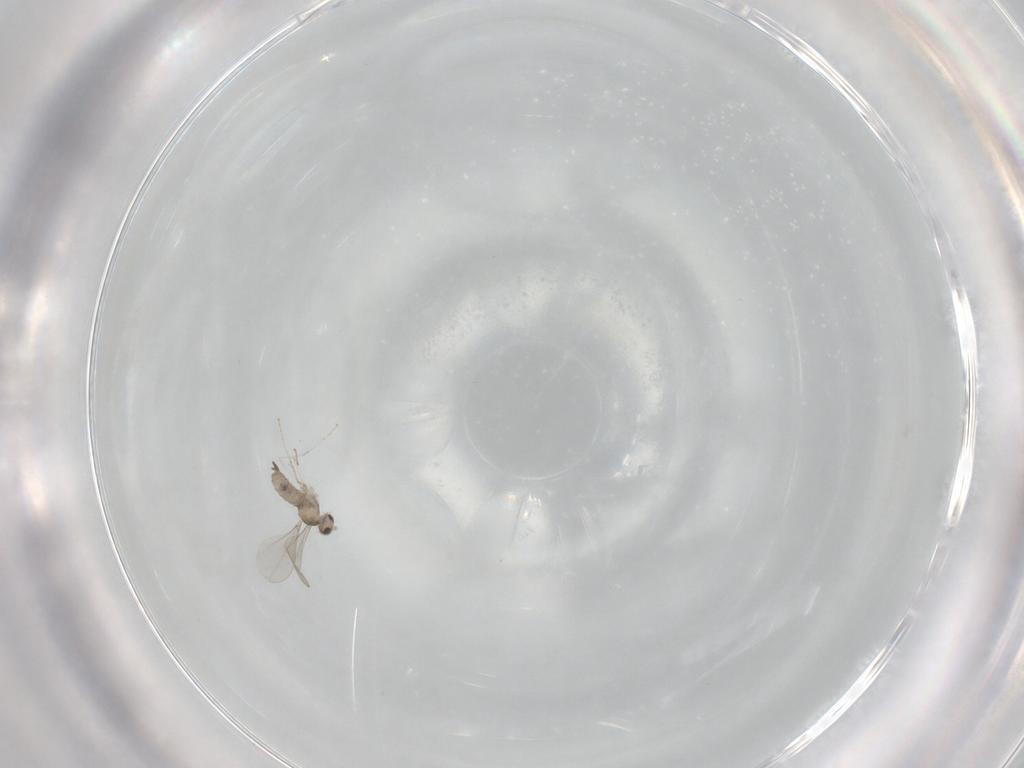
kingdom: Animalia
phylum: Arthropoda
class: Insecta
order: Diptera
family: Cecidomyiidae
